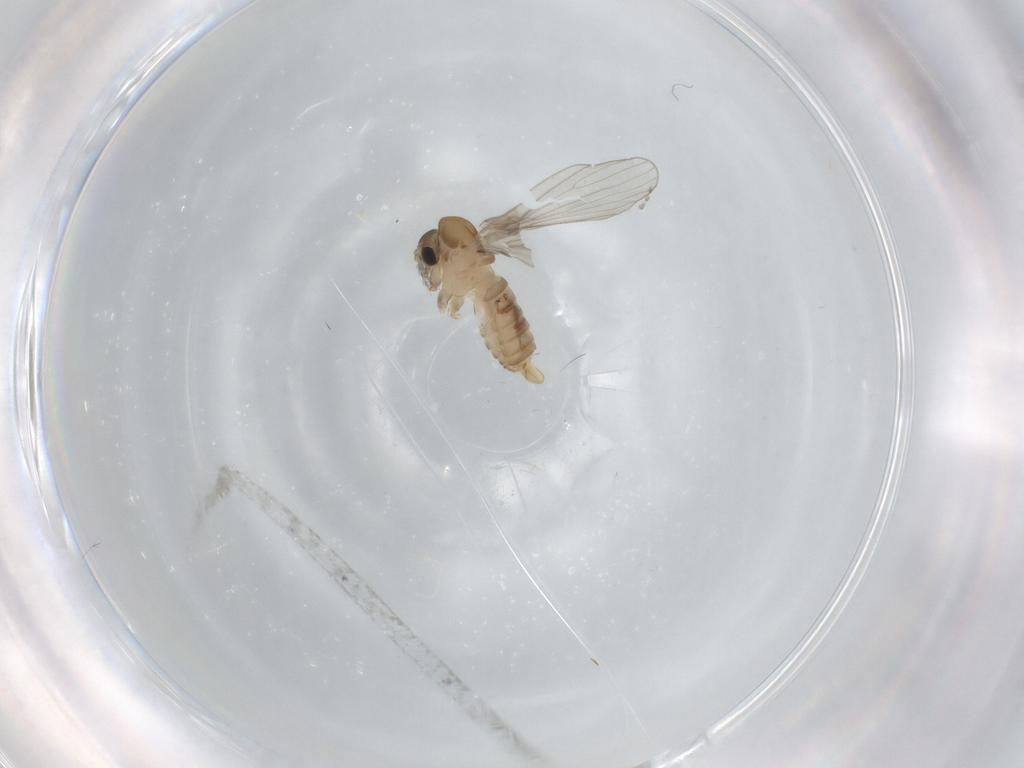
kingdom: Animalia
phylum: Arthropoda
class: Insecta
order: Diptera
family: Psychodidae
